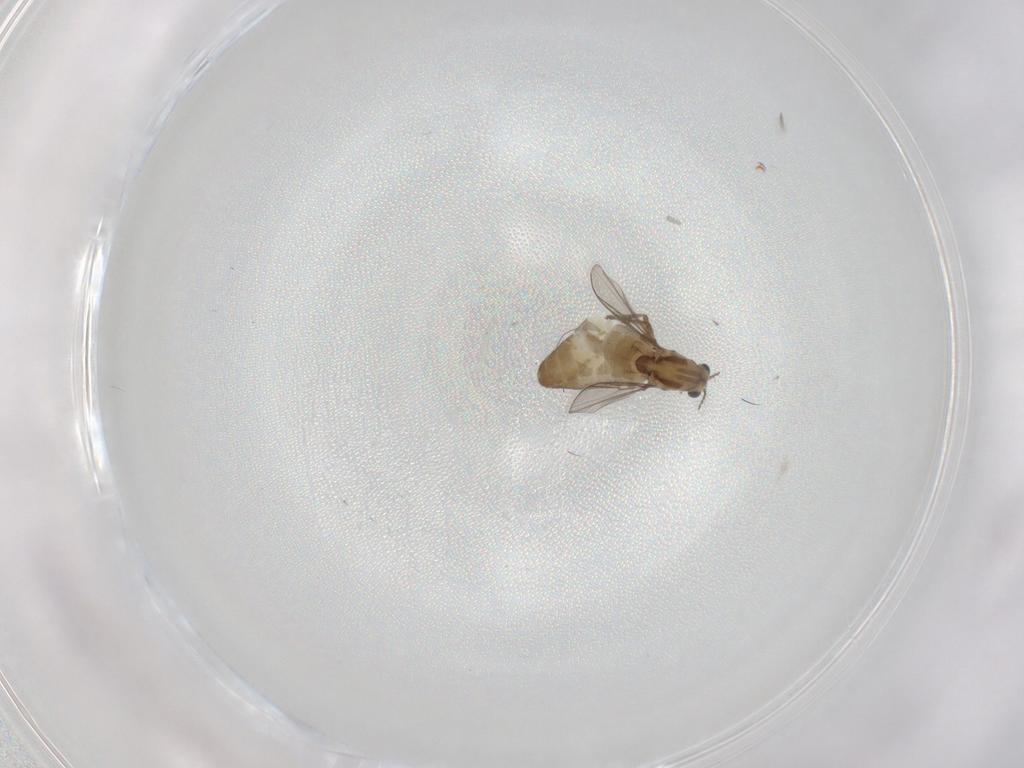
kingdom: Animalia
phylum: Arthropoda
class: Insecta
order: Diptera
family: Chironomidae
